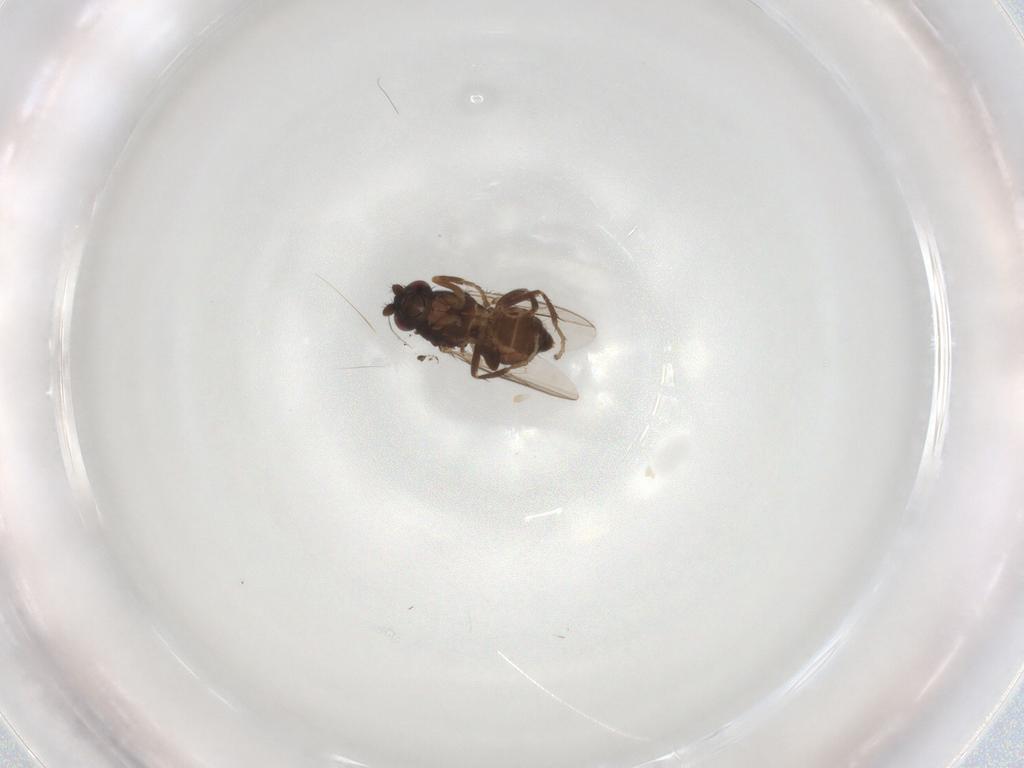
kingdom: Animalia
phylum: Arthropoda
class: Insecta
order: Diptera
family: Sphaeroceridae
